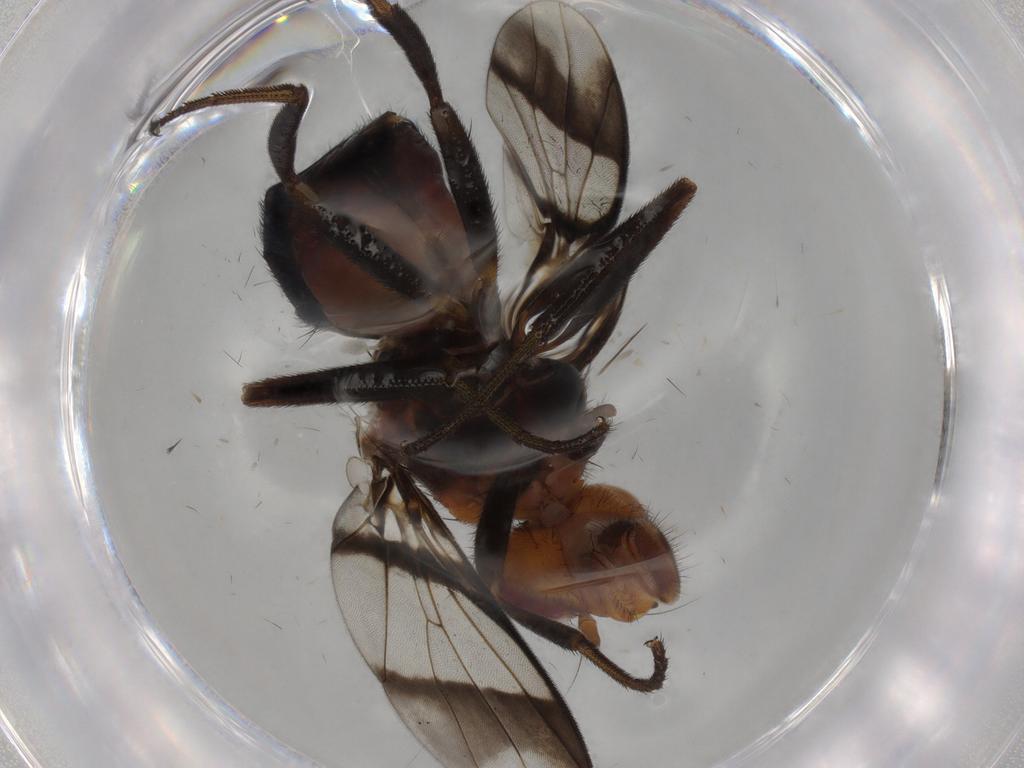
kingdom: Animalia
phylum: Arthropoda
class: Insecta
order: Diptera
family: Richardiidae
